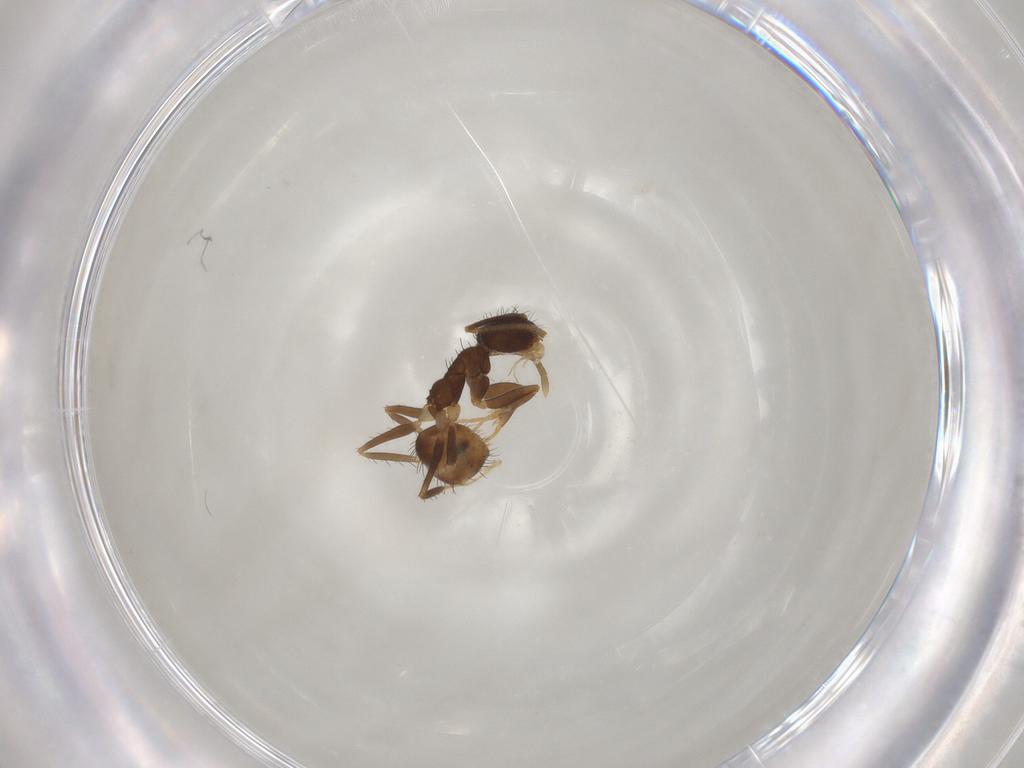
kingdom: Animalia
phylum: Arthropoda
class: Insecta
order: Hymenoptera
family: Formicidae
